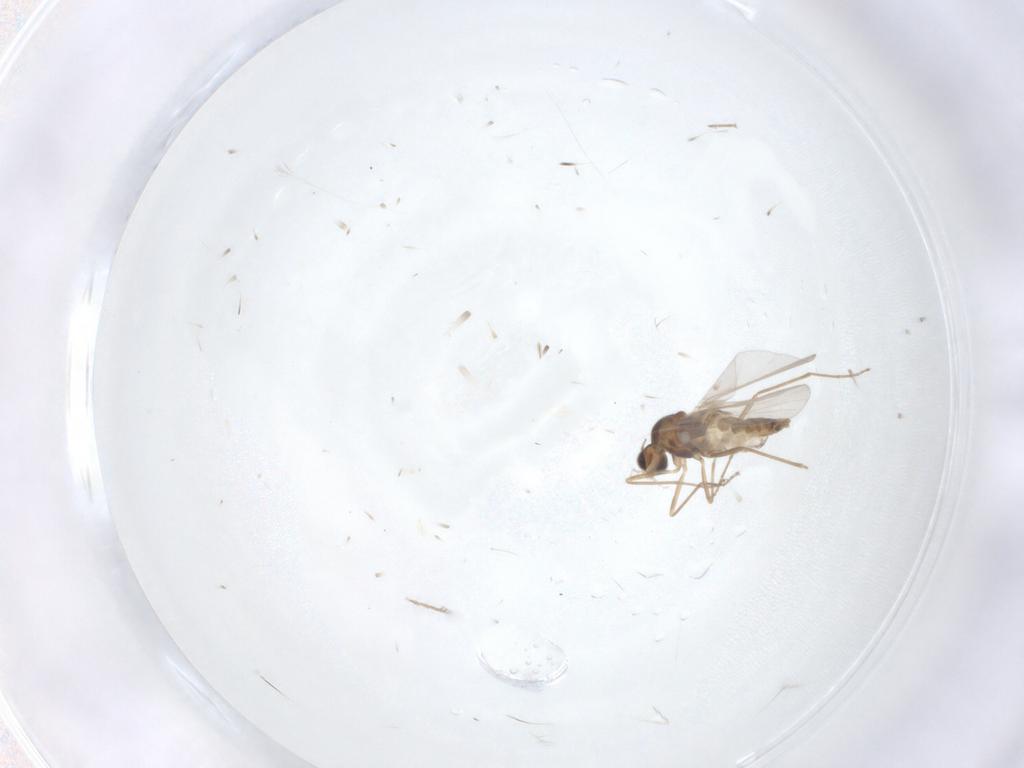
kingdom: Animalia
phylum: Arthropoda
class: Insecta
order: Diptera
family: Cecidomyiidae
